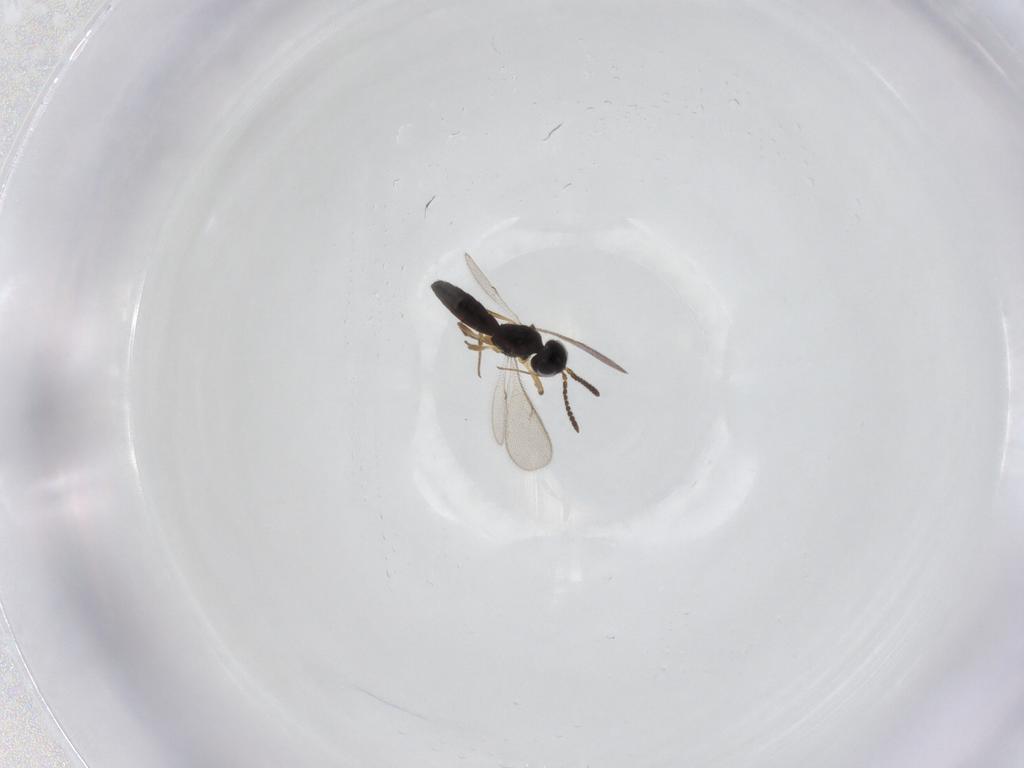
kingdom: Animalia
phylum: Arthropoda
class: Insecta
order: Hymenoptera
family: Scelionidae
